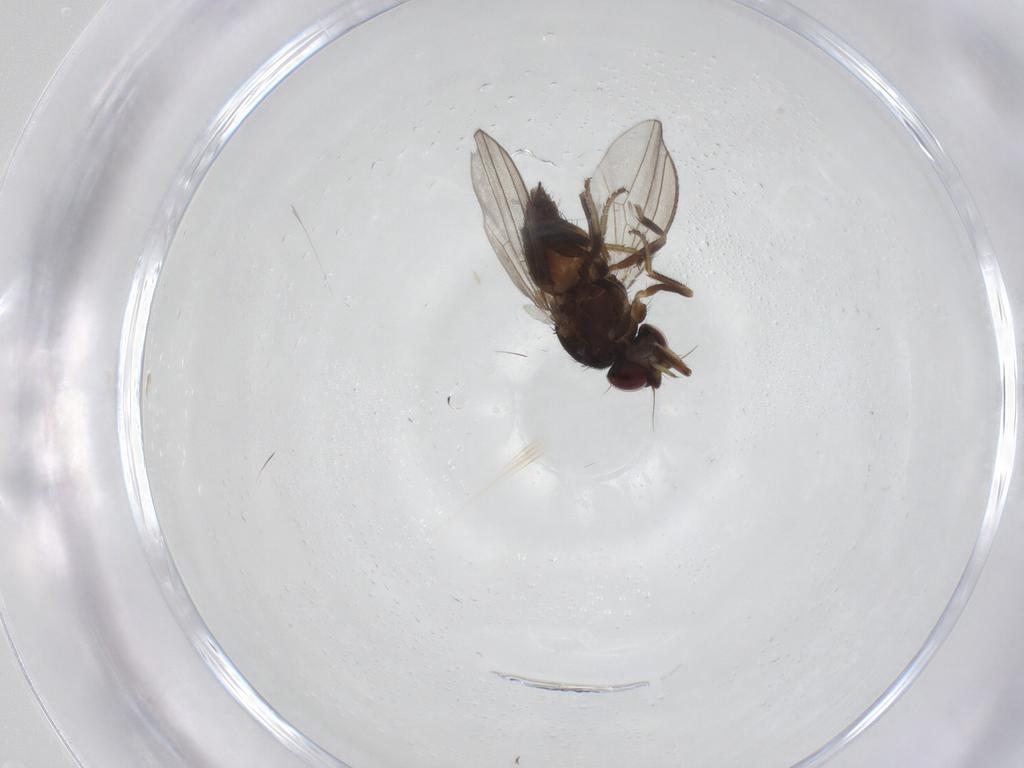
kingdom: Animalia
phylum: Arthropoda
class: Insecta
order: Diptera
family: Milichiidae
